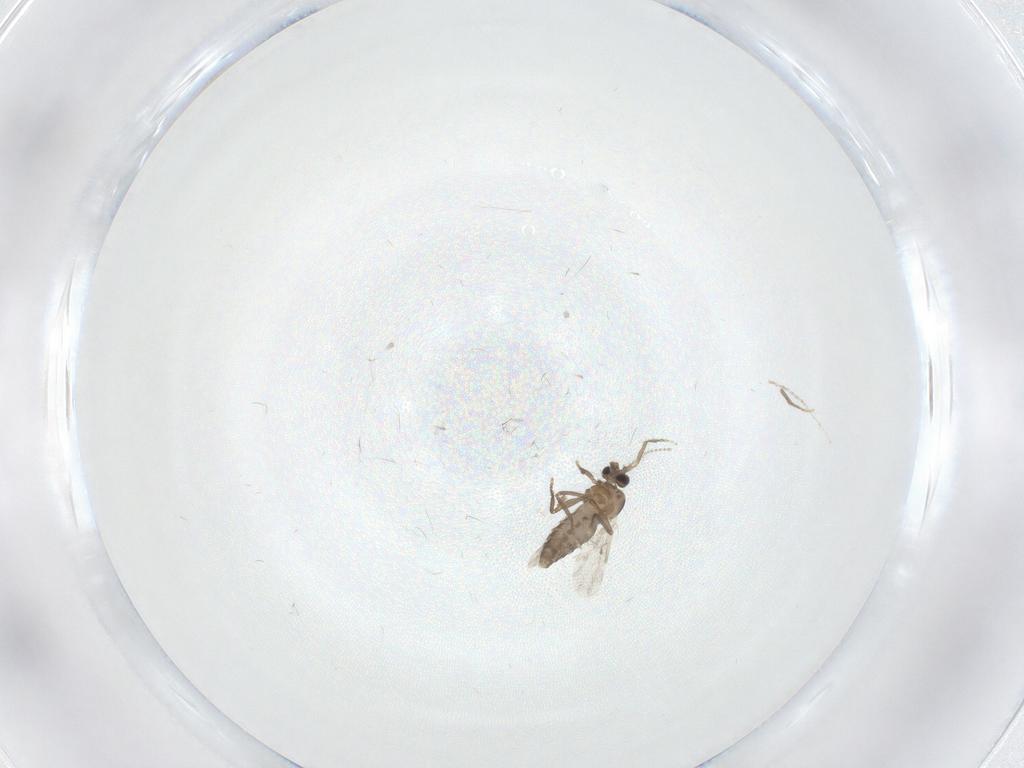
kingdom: Animalia
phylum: Arthropoda
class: Insecta
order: Diptera
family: Ceratopogonidae
